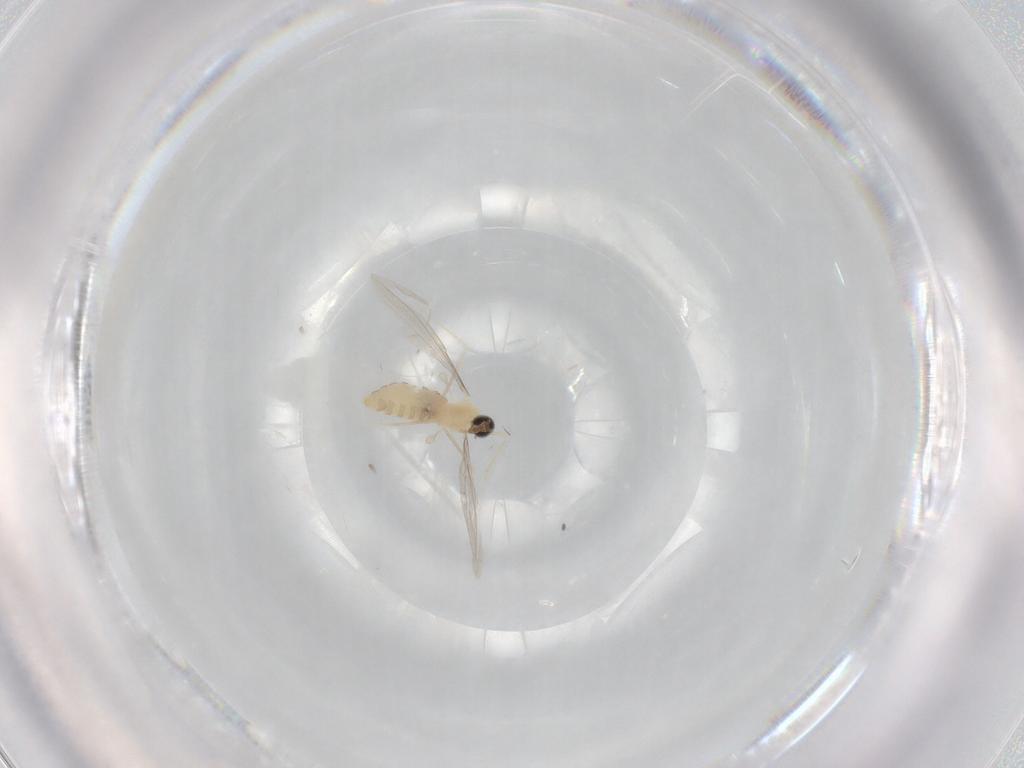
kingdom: Animalia
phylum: Arthropoda
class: Insecta
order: Diptera
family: Cecidomyiidae
